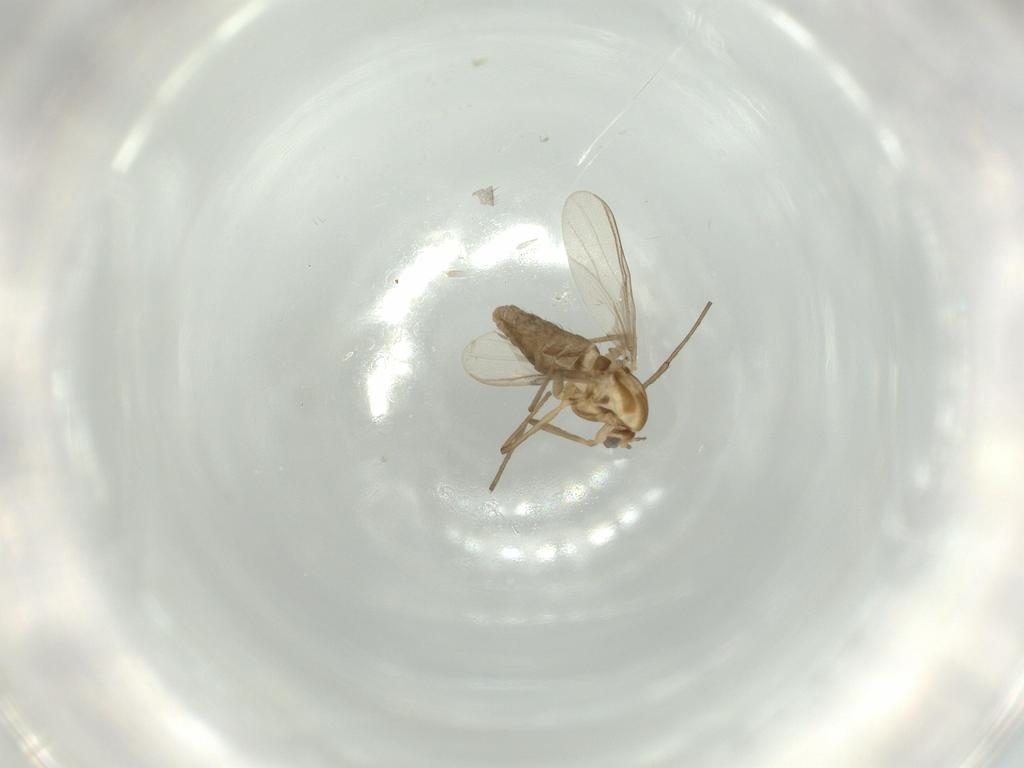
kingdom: Animalia
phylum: Arthropoda
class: Insecta
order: Diptera
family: Chironomidae
